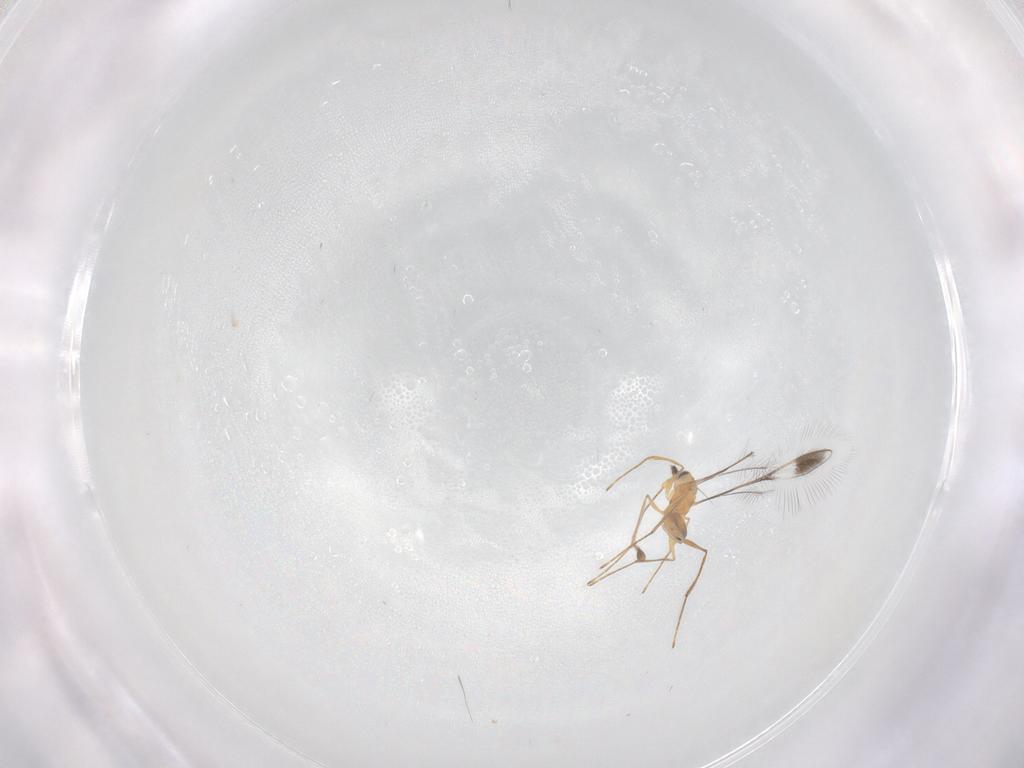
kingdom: Animalia
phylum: Arthropoda
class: Insecta
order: Hymenoptera
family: Mymaridae
